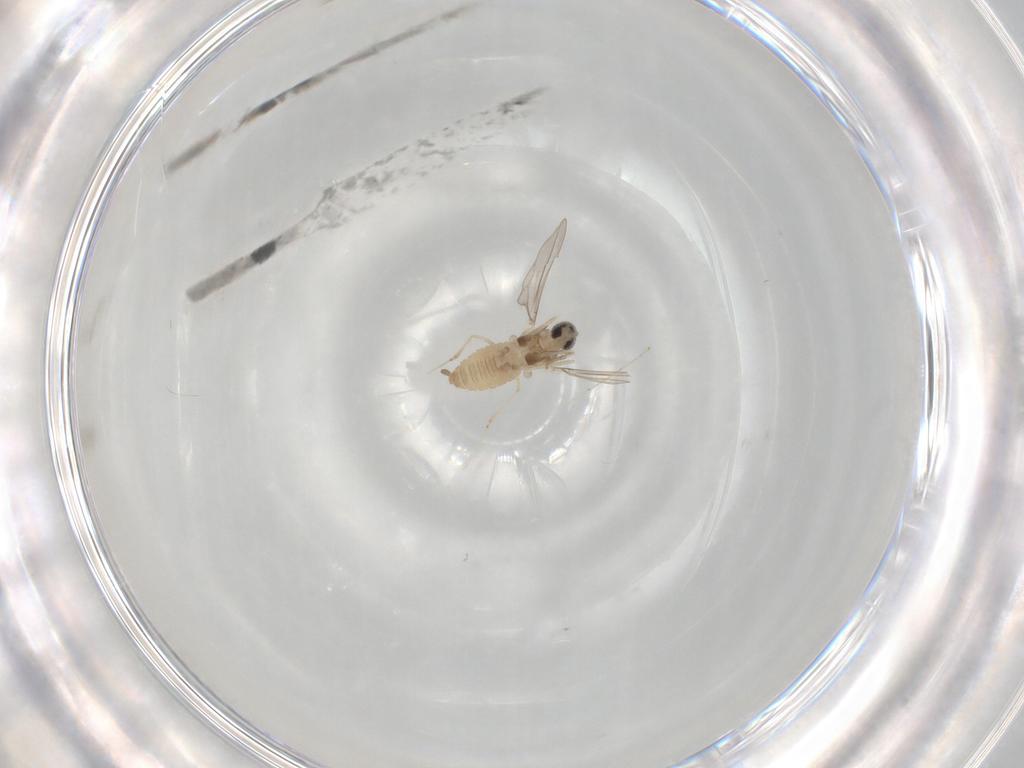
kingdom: Animalia
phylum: Arthropoda
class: Insecta
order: Diptera
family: Cecidomyiidae
